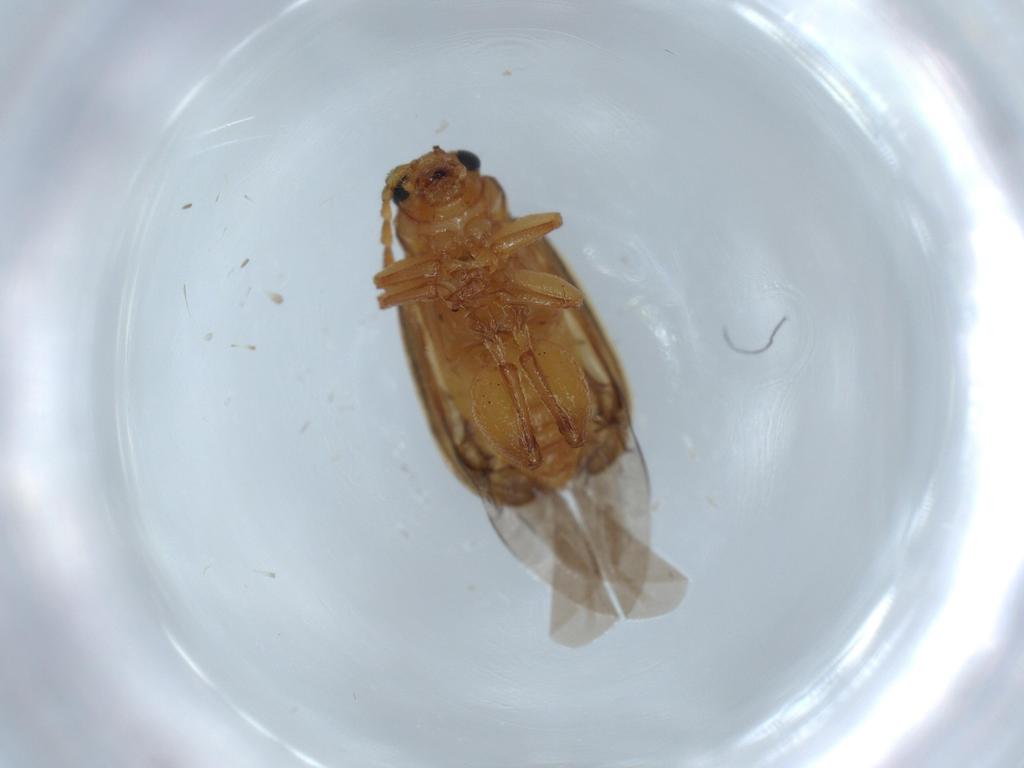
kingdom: Animalia
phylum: Arthropoda
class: Insecta
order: Coleoptera
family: Chrysomelidae
